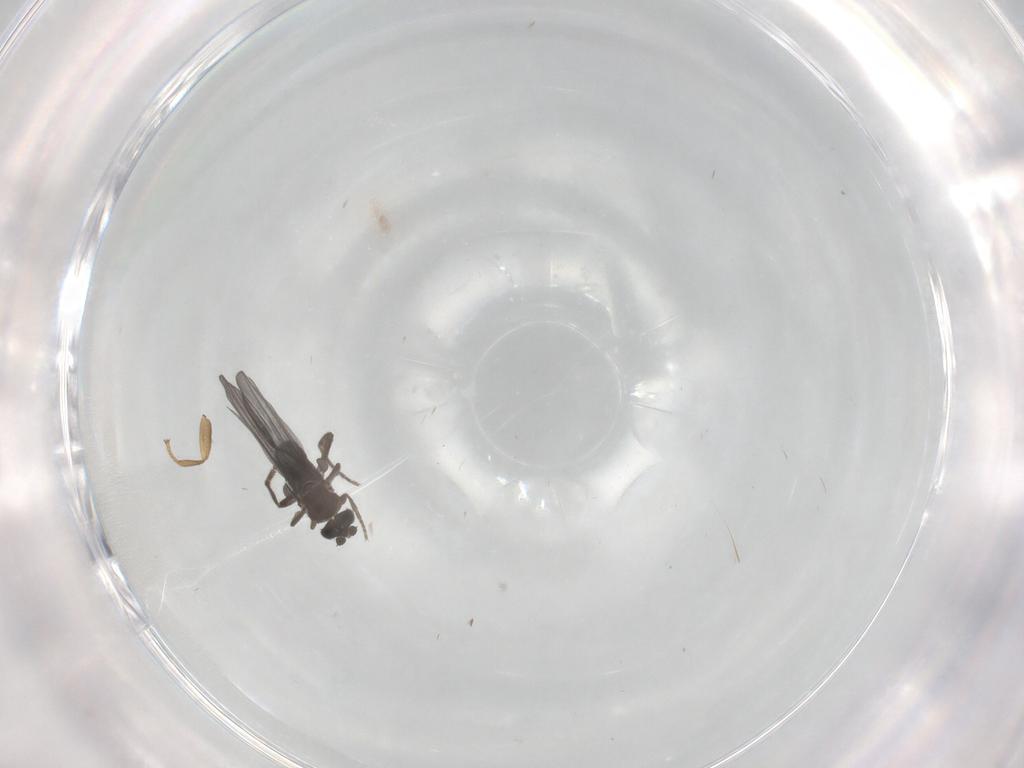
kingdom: Animalia
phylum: Arthropoda
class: Insecta
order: Diptera
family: Phoridae
